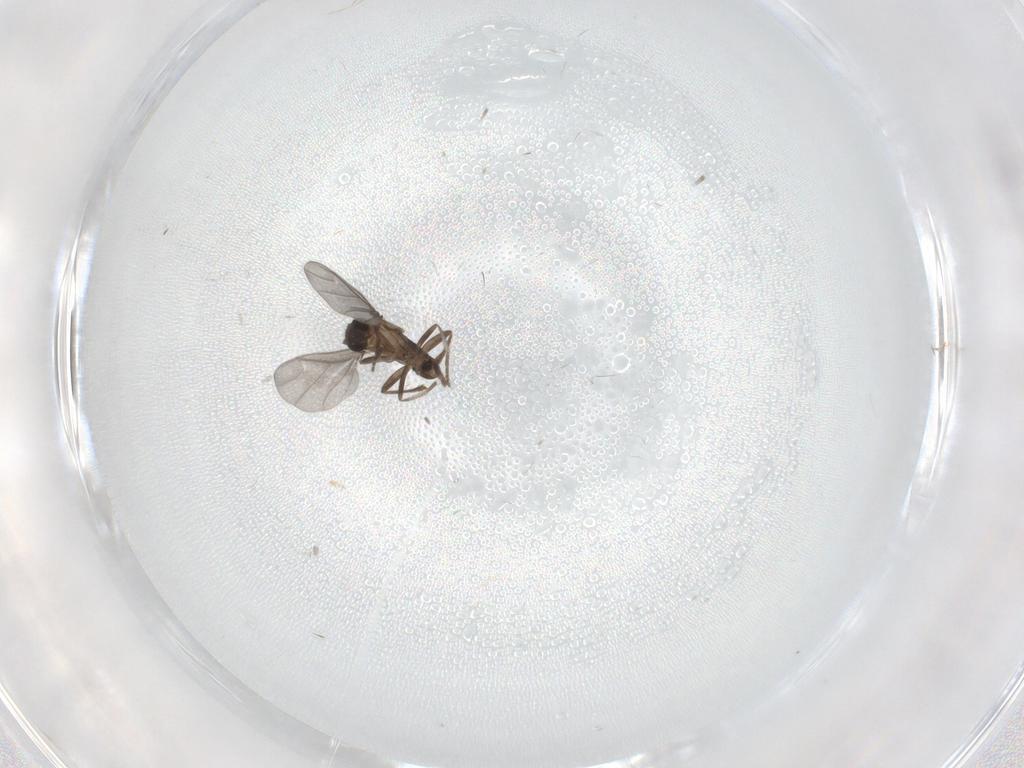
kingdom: Animalia
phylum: Arthropoda
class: Insecta
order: Diptera
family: Phoridae
